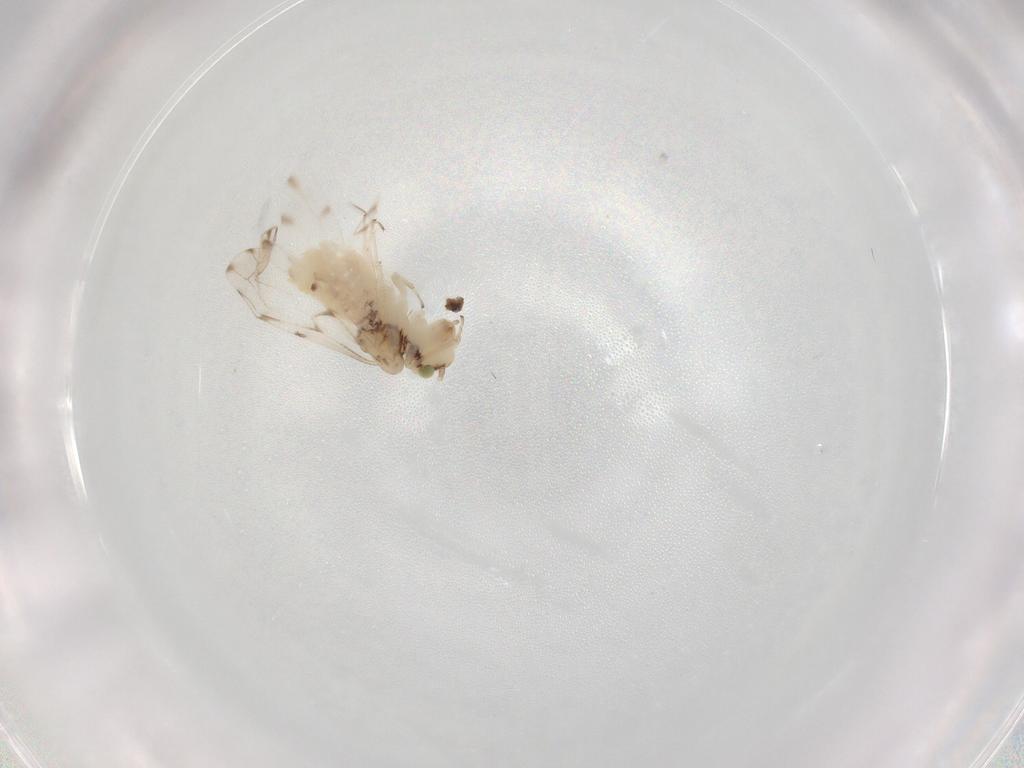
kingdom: Animalia
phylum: Arthropoda
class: Insecta
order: Psocodea
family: Ectopsocidae
